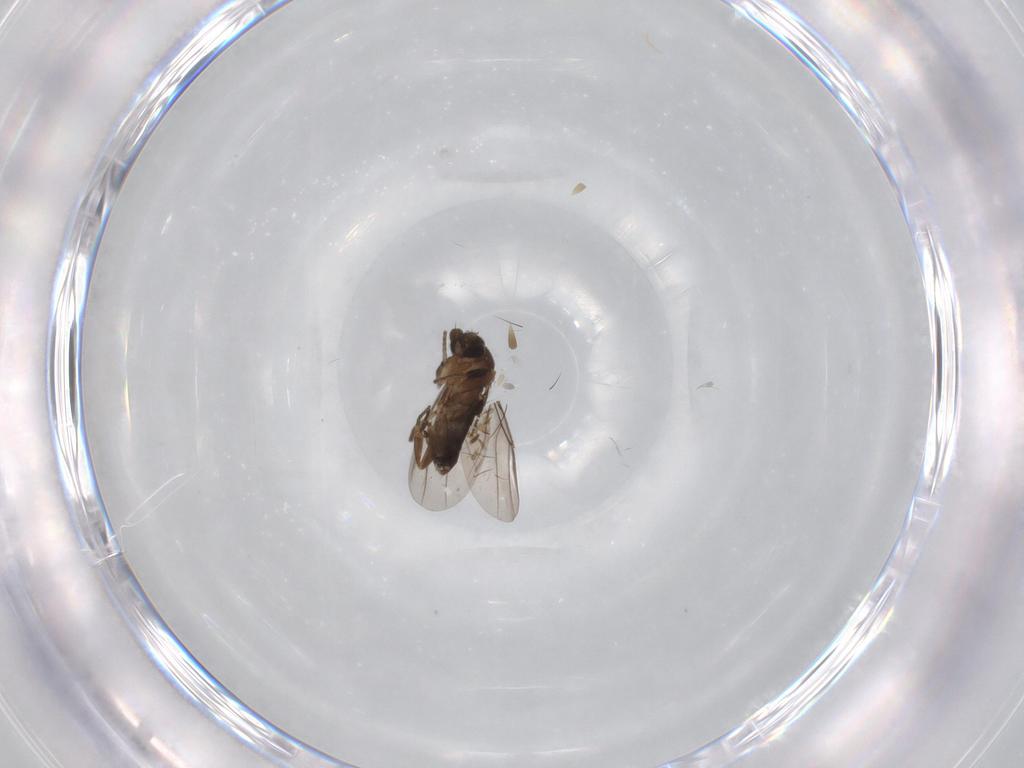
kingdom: Animalia
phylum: Arthropoda
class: Insecta
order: Diptera
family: Phoridae
